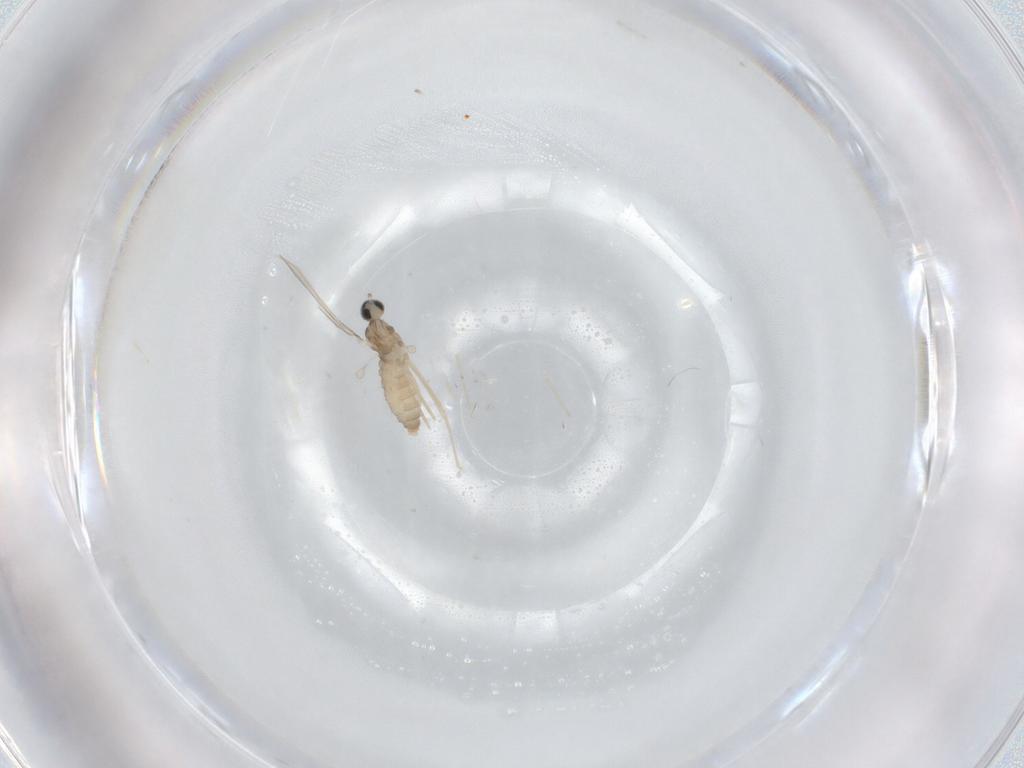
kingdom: Animalia
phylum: Arthropoda
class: Insecta
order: Diptera
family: Cecidomyiidae
